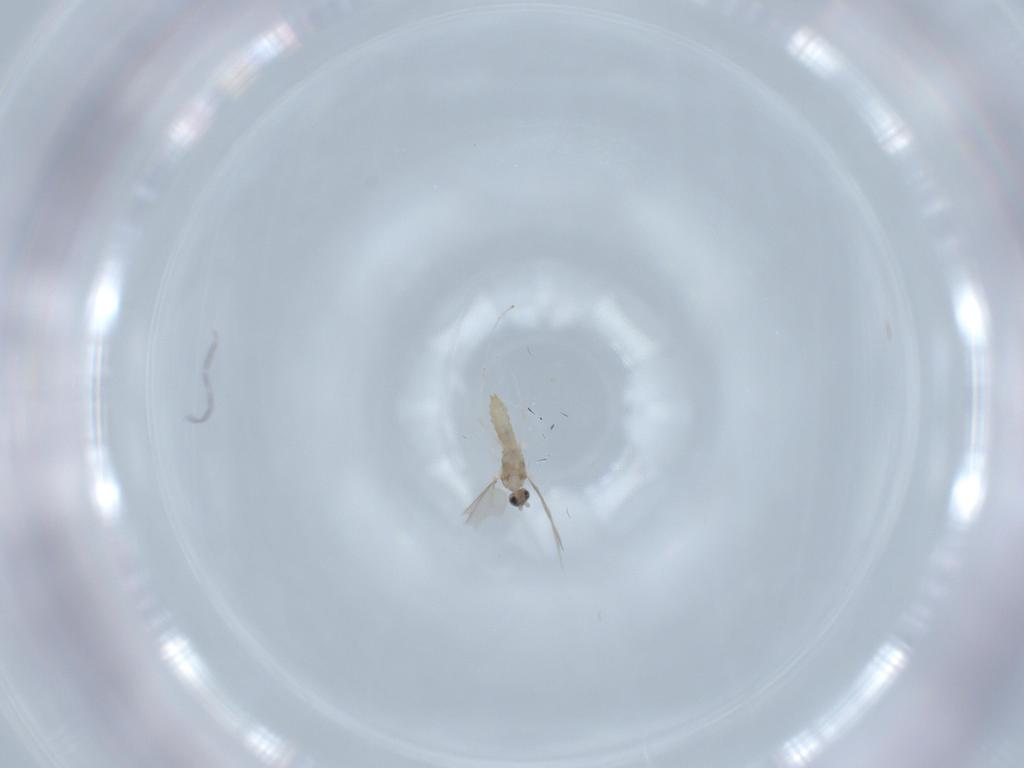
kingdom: Animalia
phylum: Arthropoda
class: Insecta
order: Diptera
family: Cecidomyiidae
